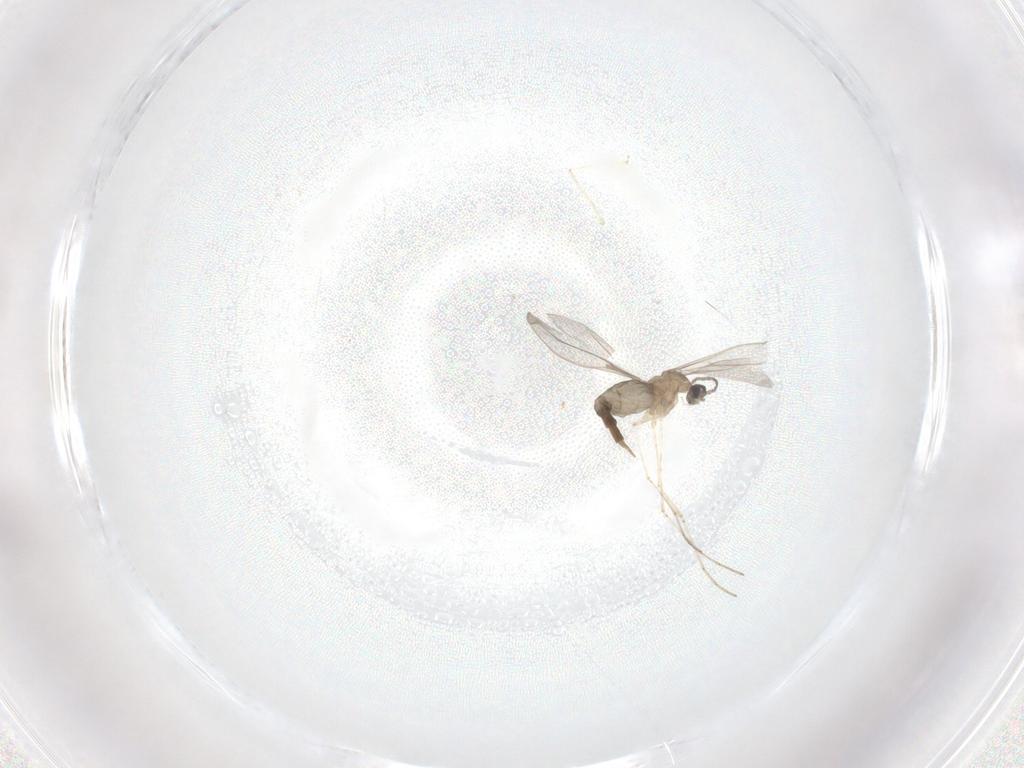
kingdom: Animalia
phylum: Arthropoda
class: Insecta
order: Diptera
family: Cecidomyiidae
